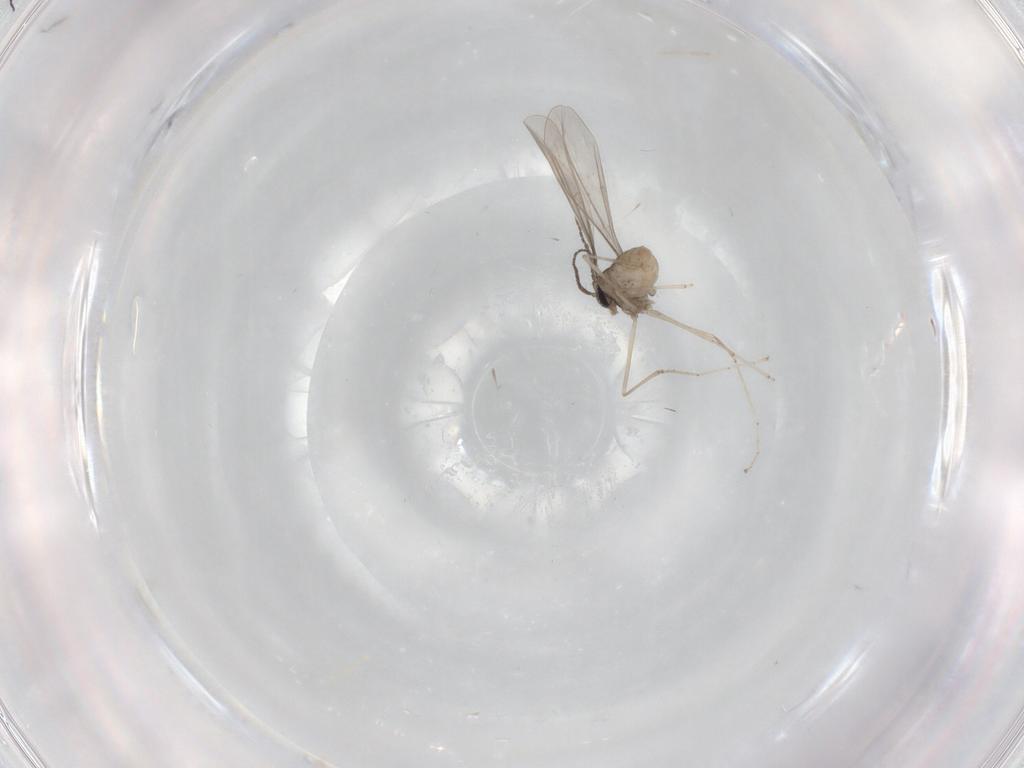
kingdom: Animalia
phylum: Arthropoda
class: Insecta
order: Diptera
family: Cecidomyiidae
